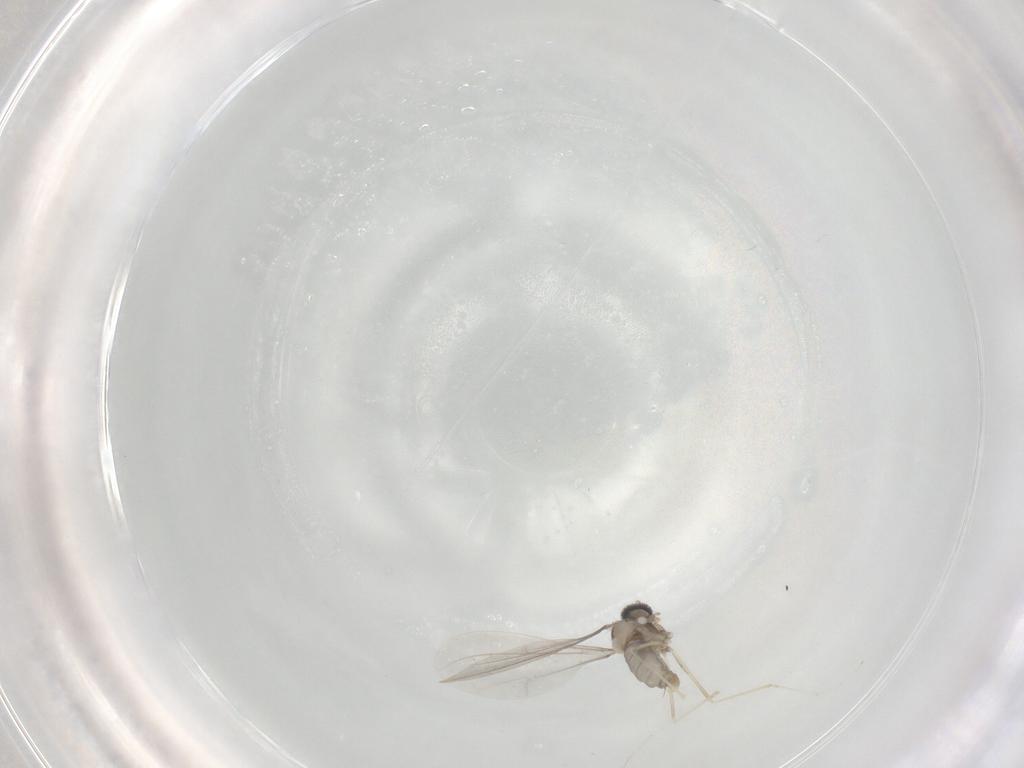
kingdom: Animalia
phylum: Arthropoda
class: Insecta
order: Diptera
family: Cecidomyiidae
